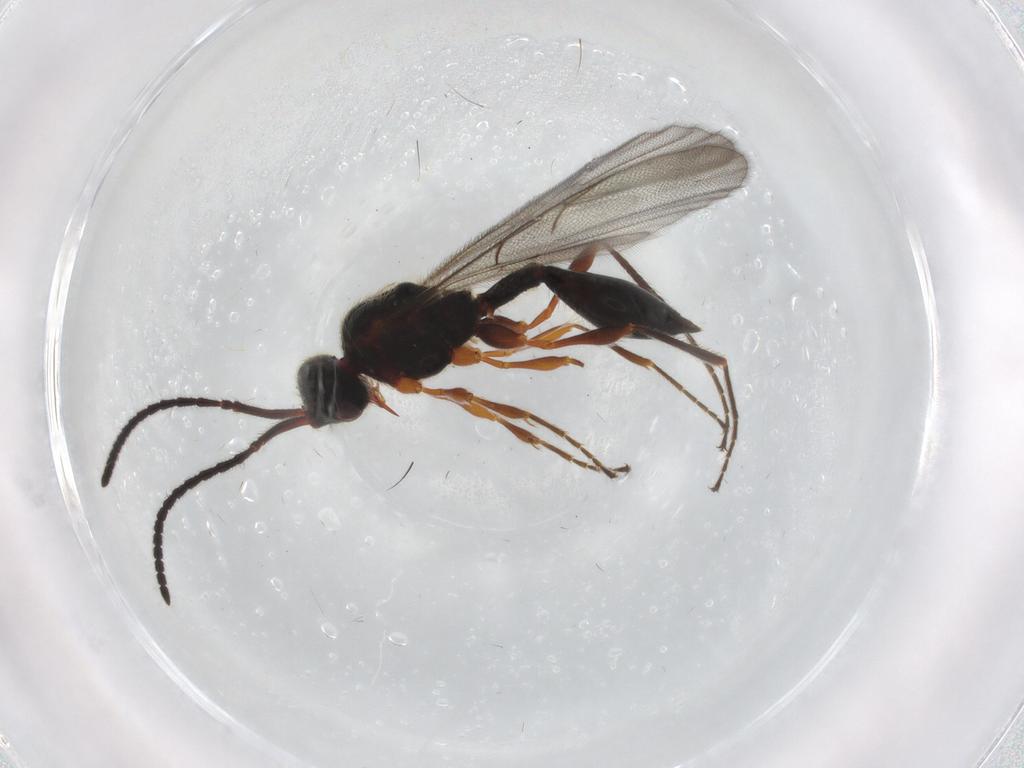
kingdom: Animalia
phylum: Arthropoda
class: Insecta
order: Hymenoptera
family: Diapriidae
